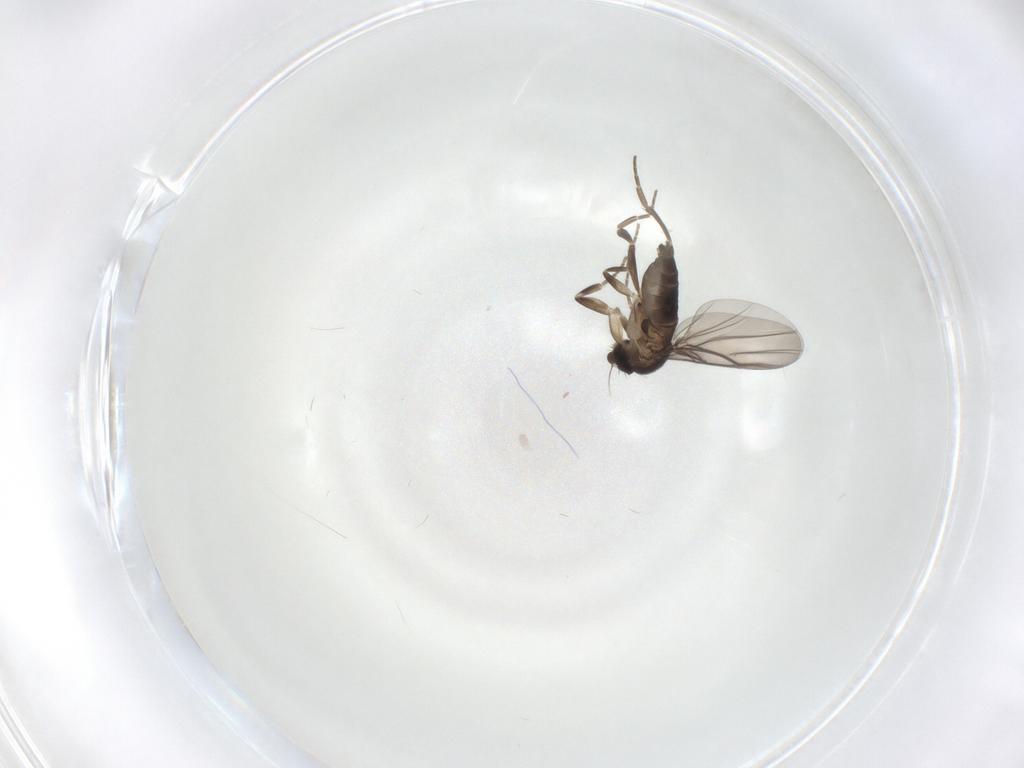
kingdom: Animalia
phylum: Arthropoda
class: Insecta
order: Diptera
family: Phoridae
